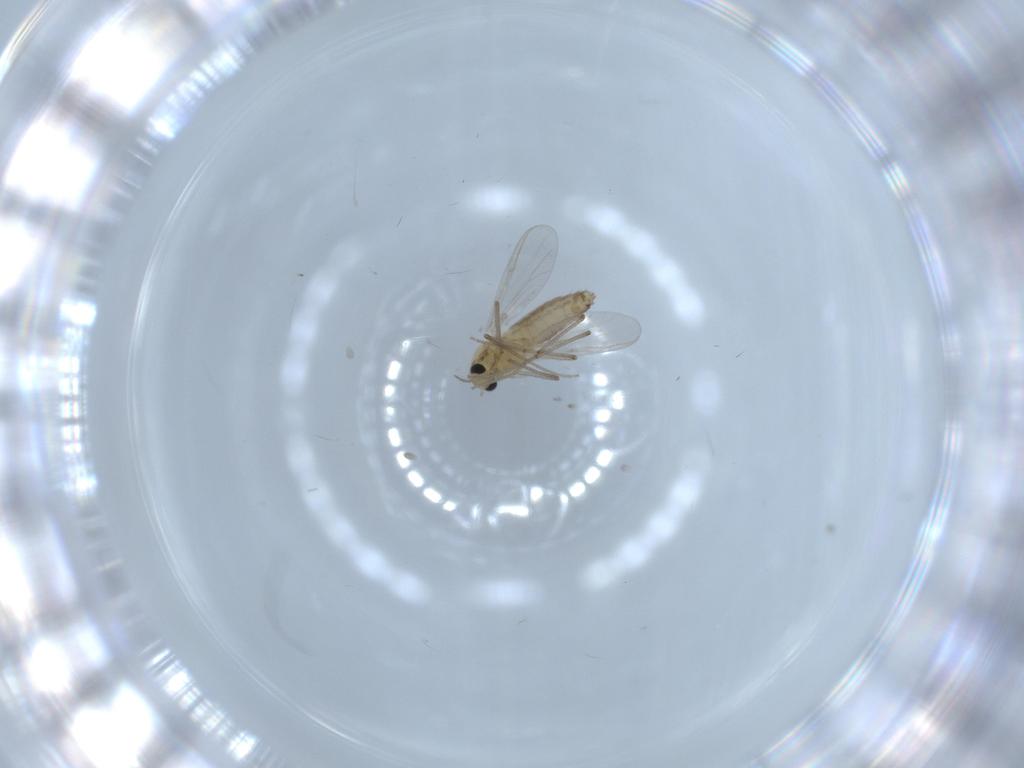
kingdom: Animalia
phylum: Arthropoda
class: Insecta
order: Diptera
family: Chironomidae
